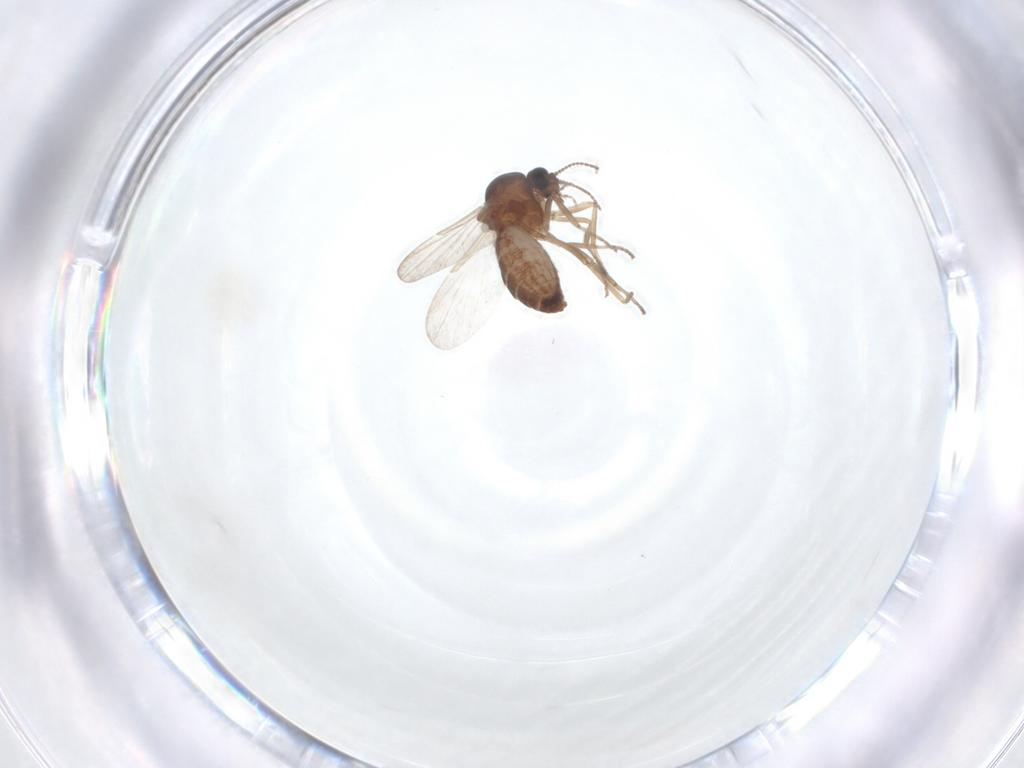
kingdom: Animalia
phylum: Arthropoda
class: Insecta
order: Diptera
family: Ceratopogonidae
